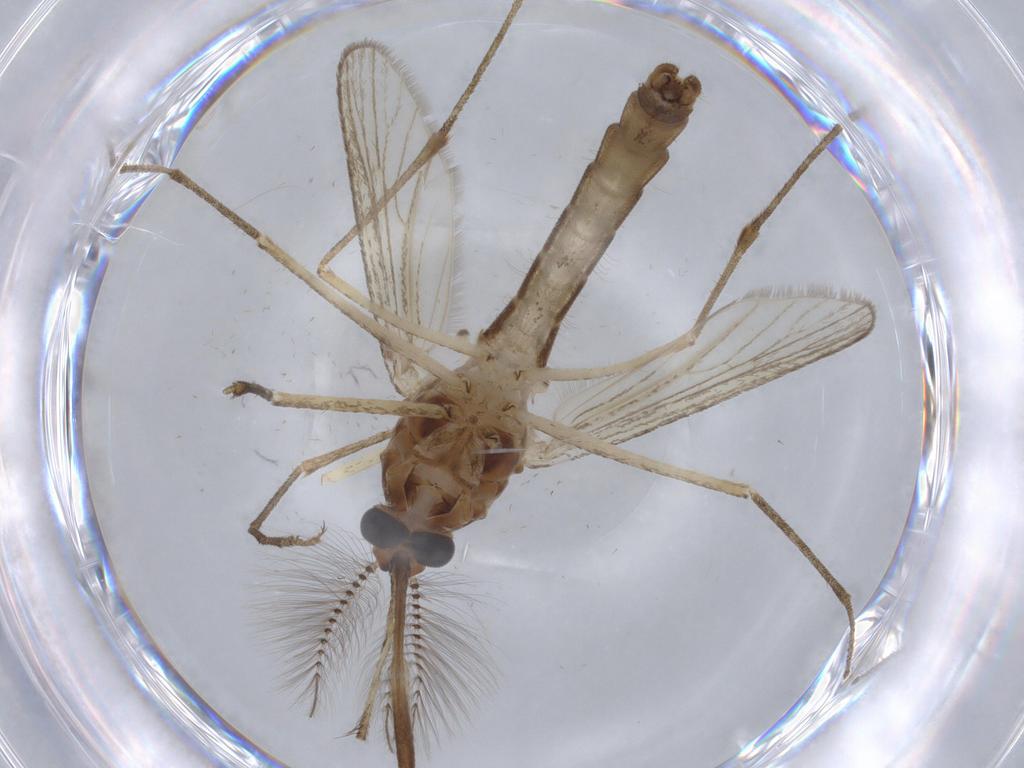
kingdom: Animalia
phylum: Arthropoda
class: Insecta
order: Diptera
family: Culicidae
